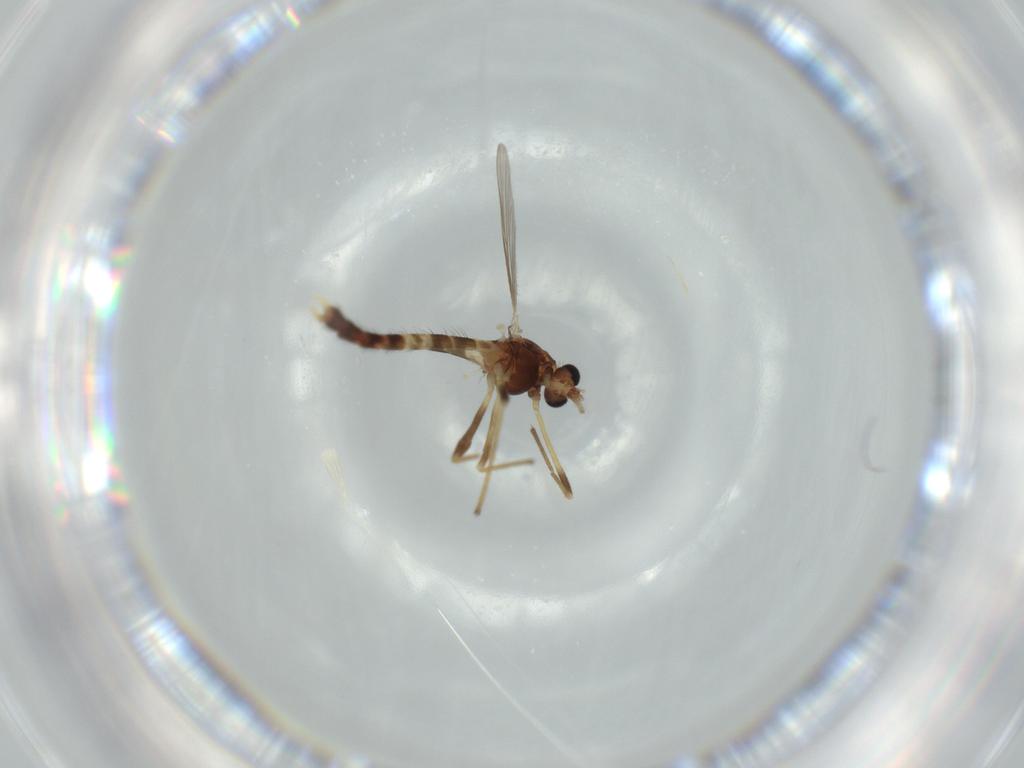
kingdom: Animalia
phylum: Arthropoda
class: Insecta
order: Diptera
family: Chironomidae
